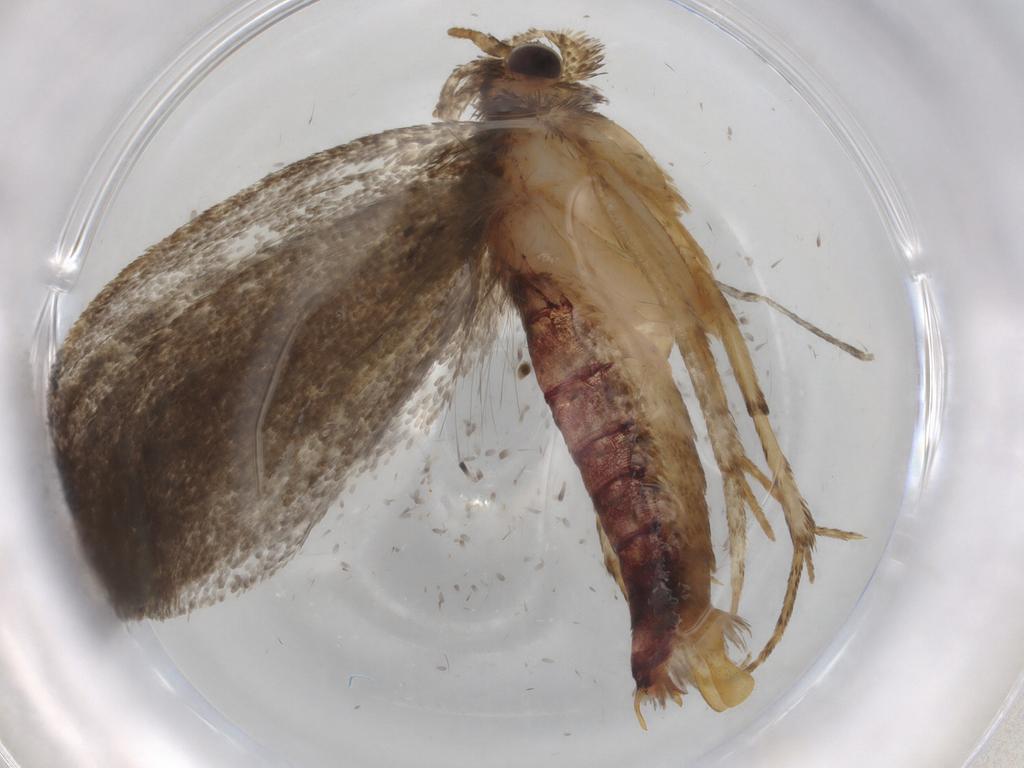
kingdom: Animalia
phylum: Arthropoda
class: Insecta
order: Lepidoptera
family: Tineidae
